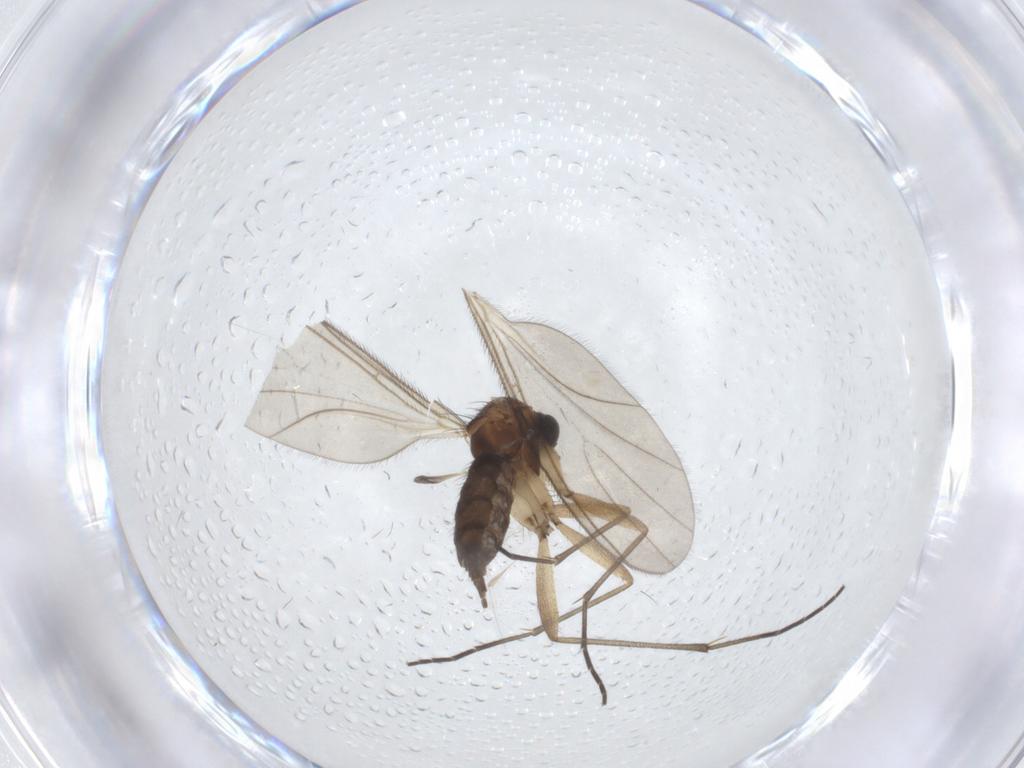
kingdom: Animalia
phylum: Arthropoda
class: Insecta
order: Diptera
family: Sciaridae
